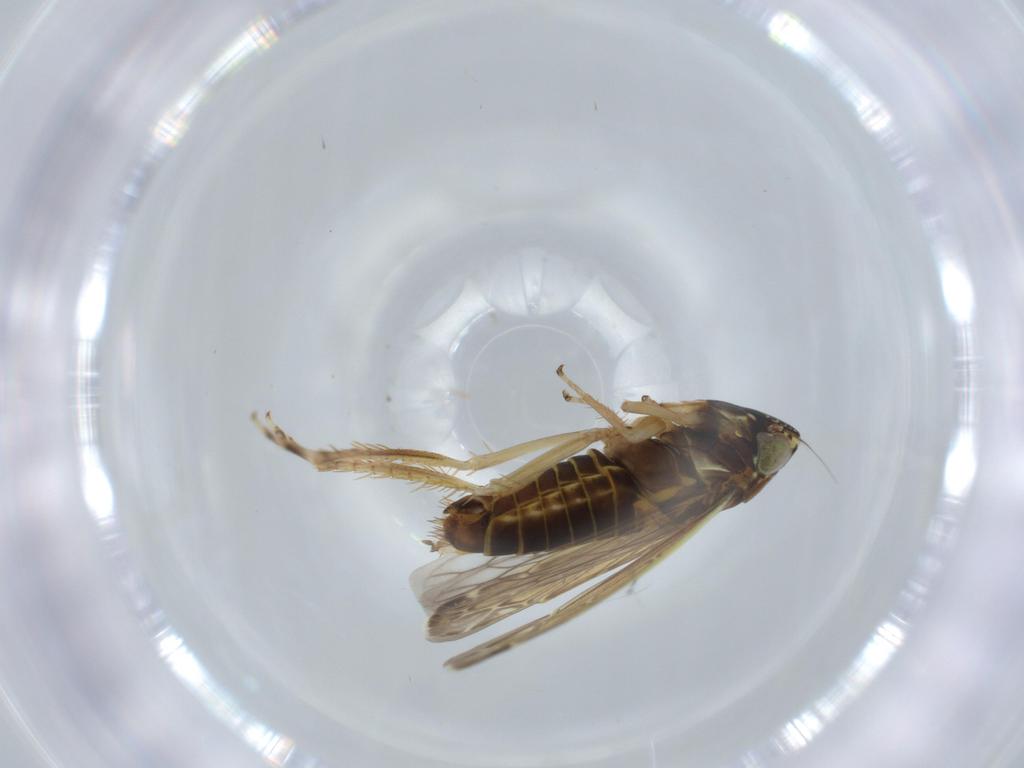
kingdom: Animalia
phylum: Arthropoda
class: Insecta
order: Hemiptera
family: Cicadellidae
